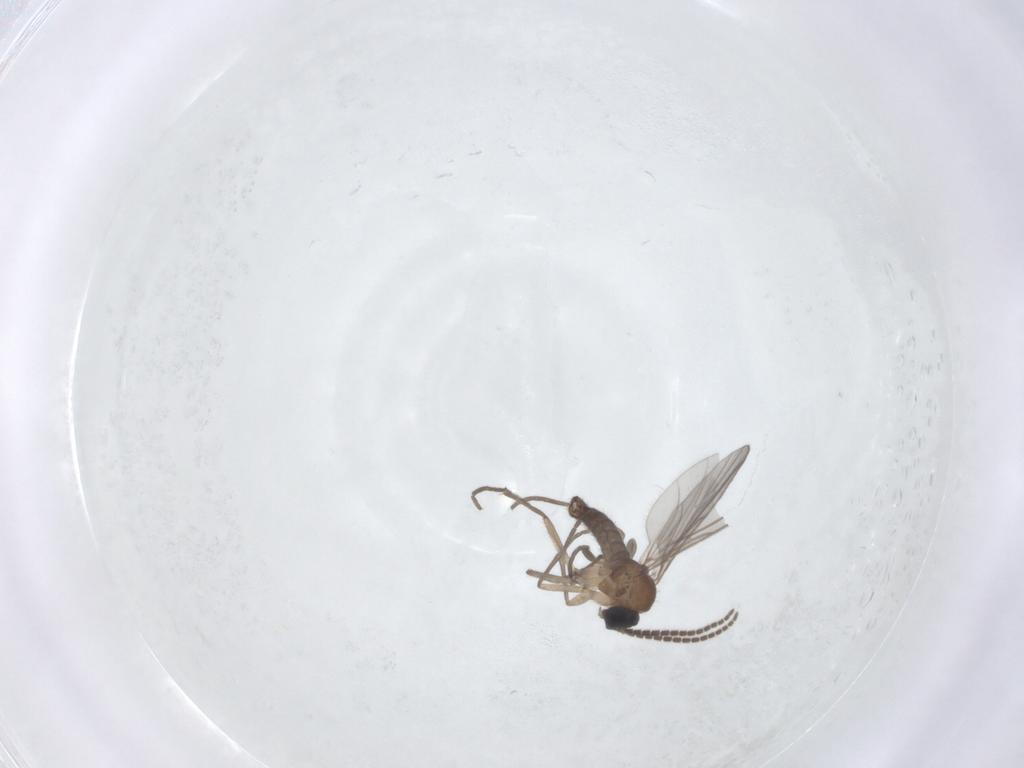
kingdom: Animalia
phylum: Arthropoda
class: Insecta
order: Diptera
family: Sciaridae
